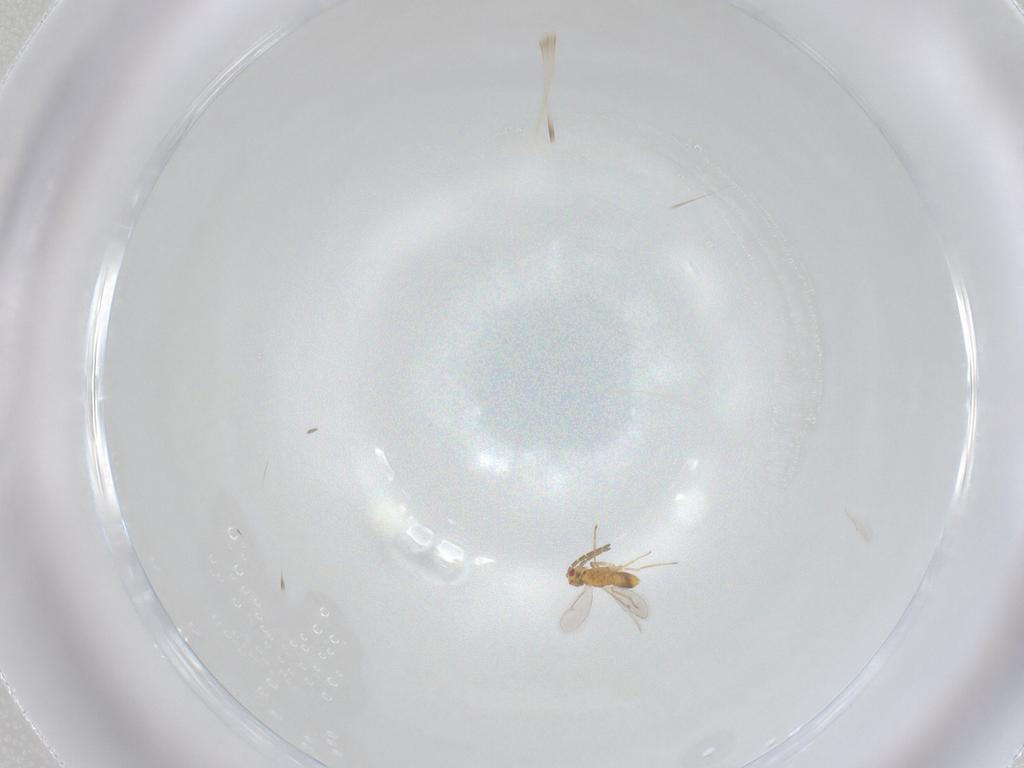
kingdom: Animalia
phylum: Arthropoda
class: Insecta
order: Hymenoptera
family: Aphelinidae
